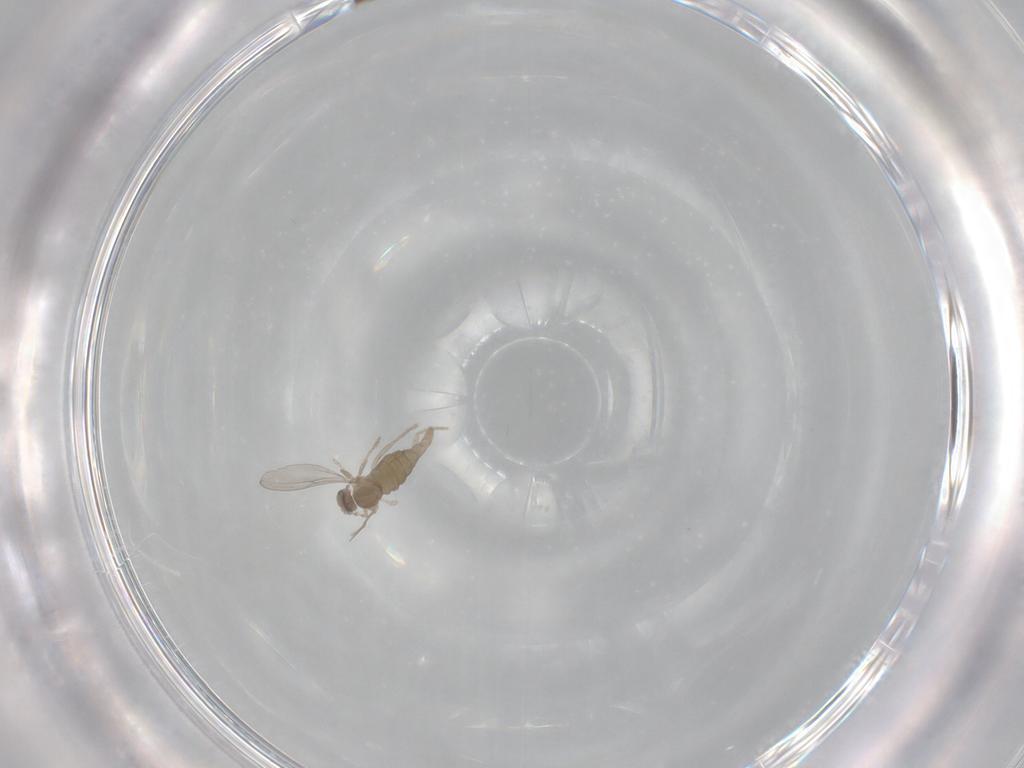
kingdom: Animalia
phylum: Arthropoda
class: Insecta
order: Diptera
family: Cecidomyiidae
